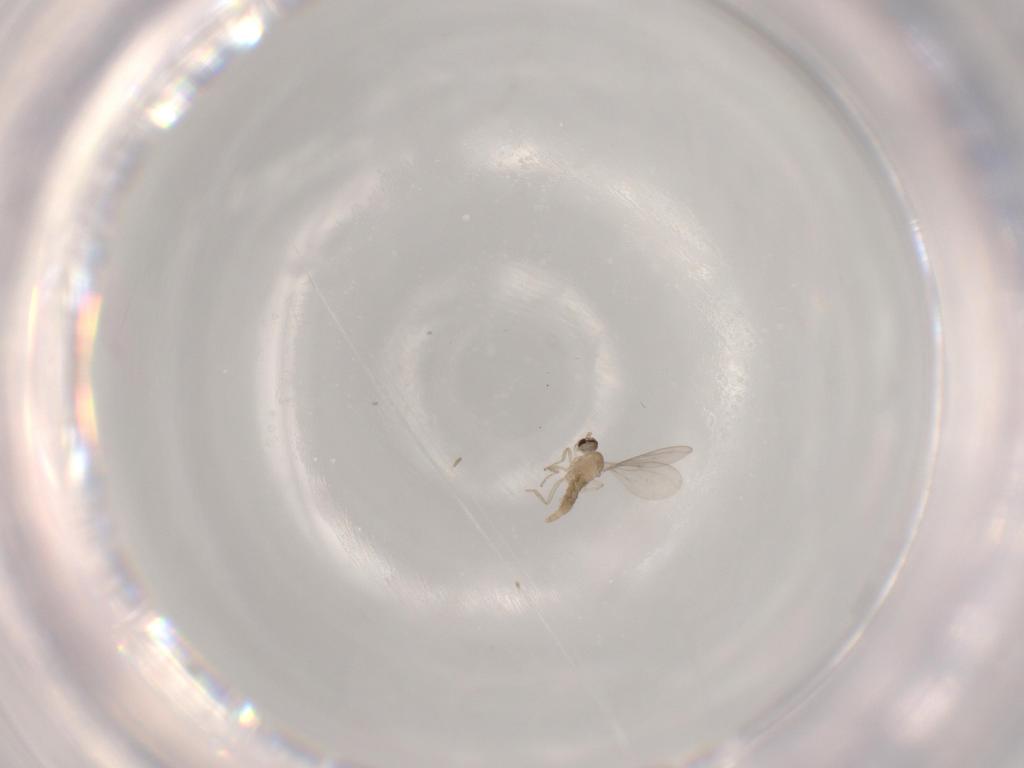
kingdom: Animalia
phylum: Arthropoda
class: Insecta
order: Diptera
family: Cecidomyiidae
